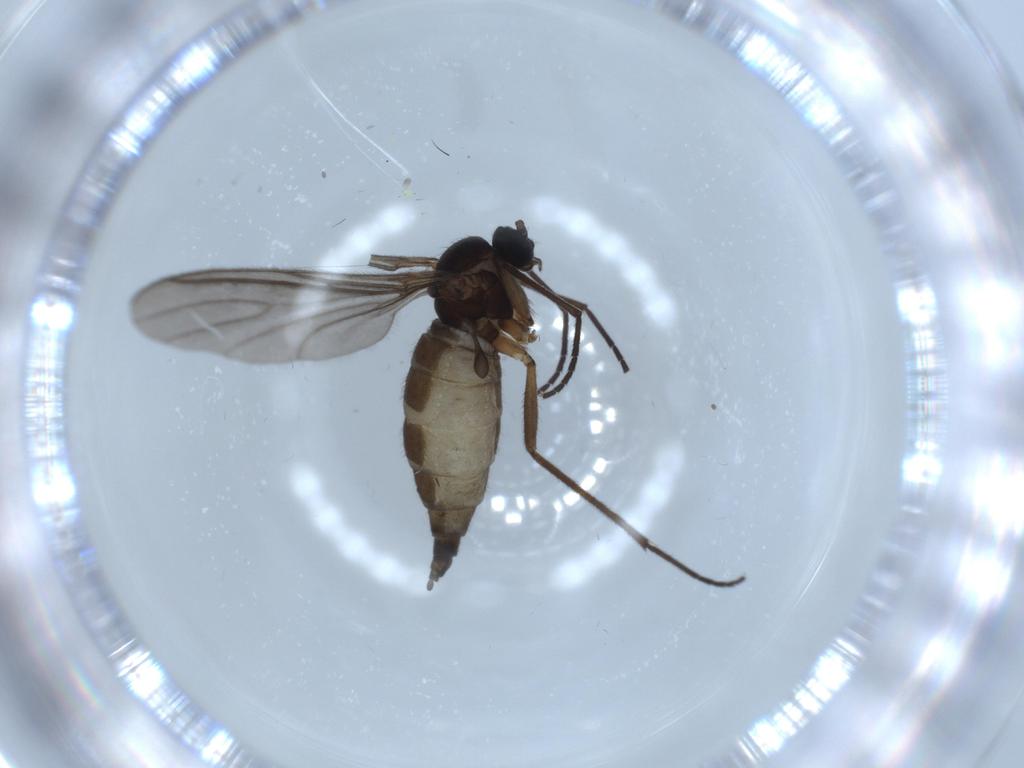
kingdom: Animalia
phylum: Arthropoda
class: Insecta
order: Diptera
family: Sciaridae
